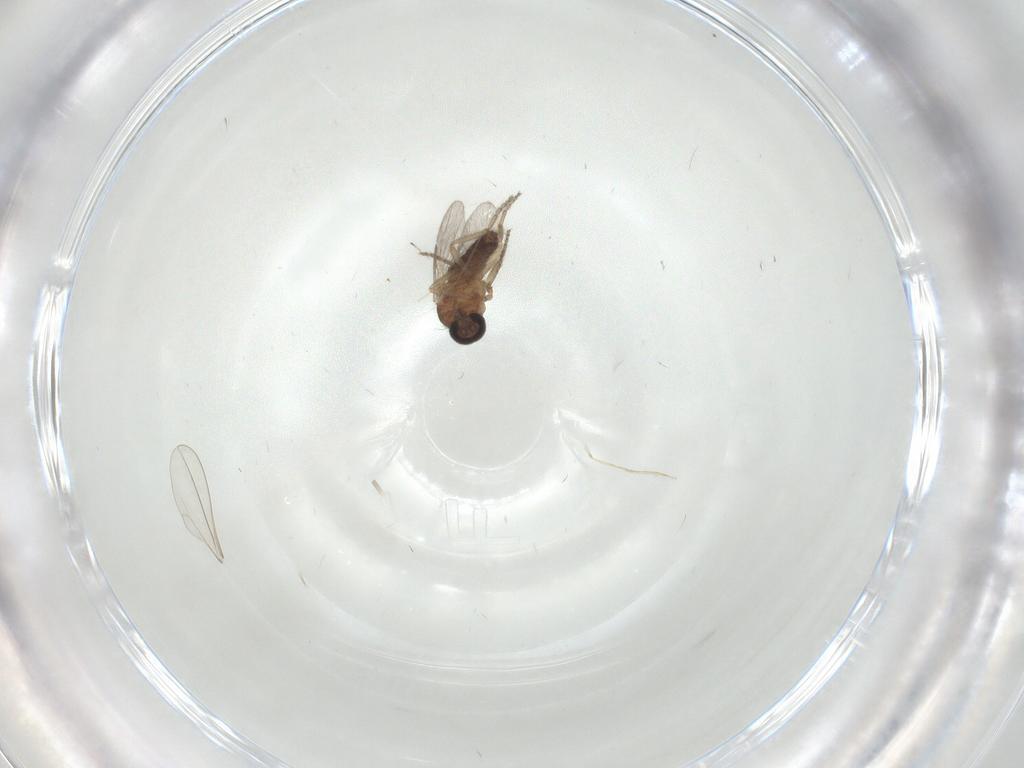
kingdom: Animalia
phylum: Arthropoda
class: Insecta
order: Diptera
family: Ceratopogonidae
